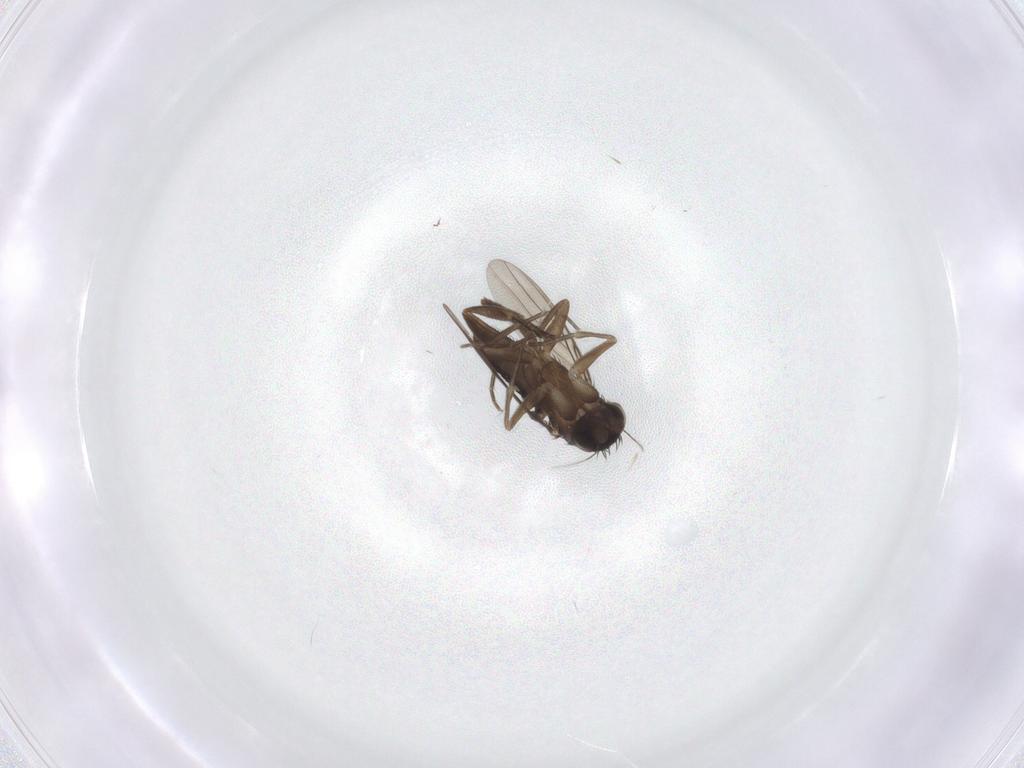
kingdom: Animalia
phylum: Arthropoda
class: Insecta
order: Diptera
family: Phoridae
